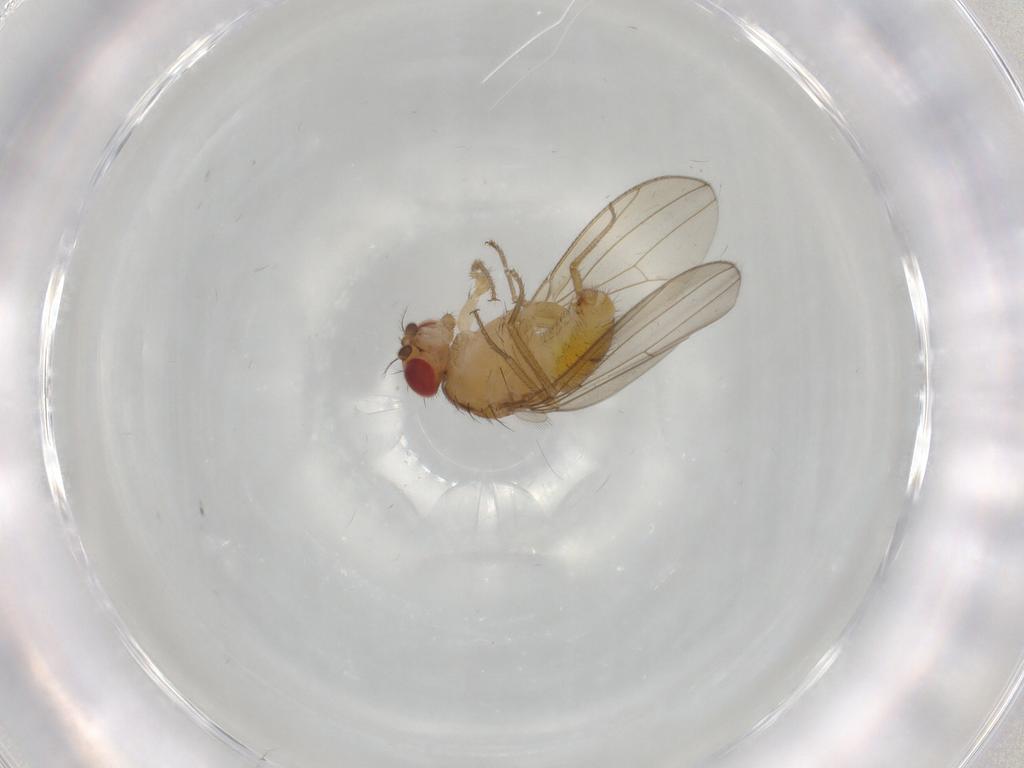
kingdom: Animalia
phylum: Arthropoda
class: Insecta
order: Diptera
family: Drosophilidae
